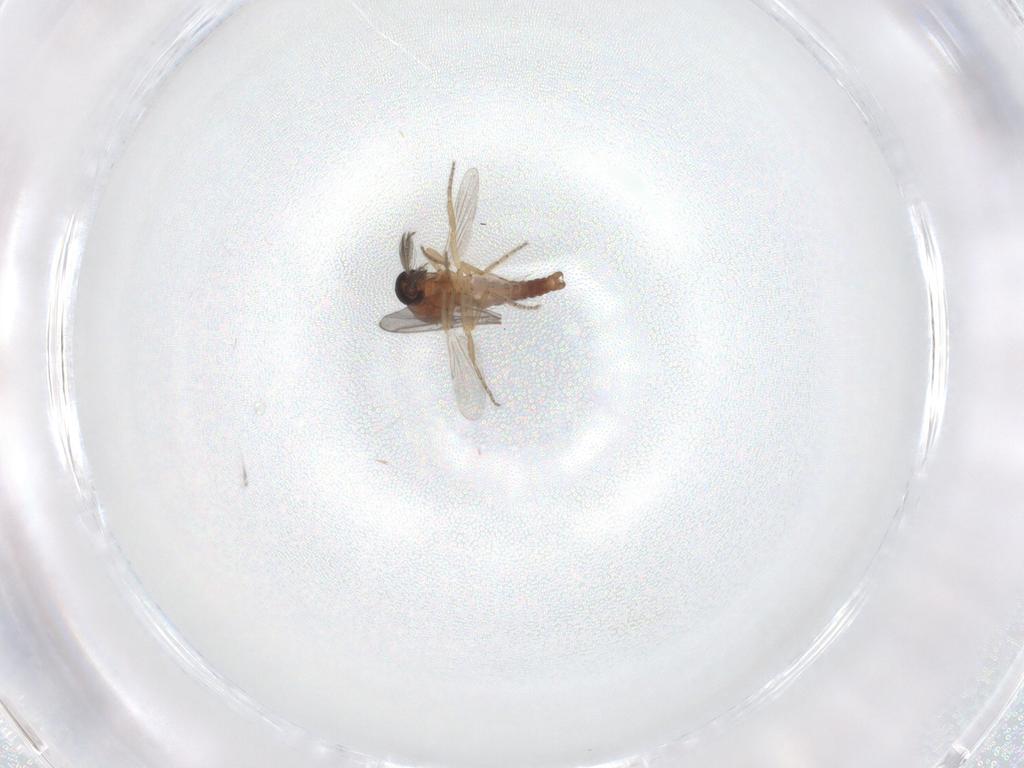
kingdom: Animalia
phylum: Arthropoda
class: Insecta
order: Diptera
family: Ceratopogonidae
